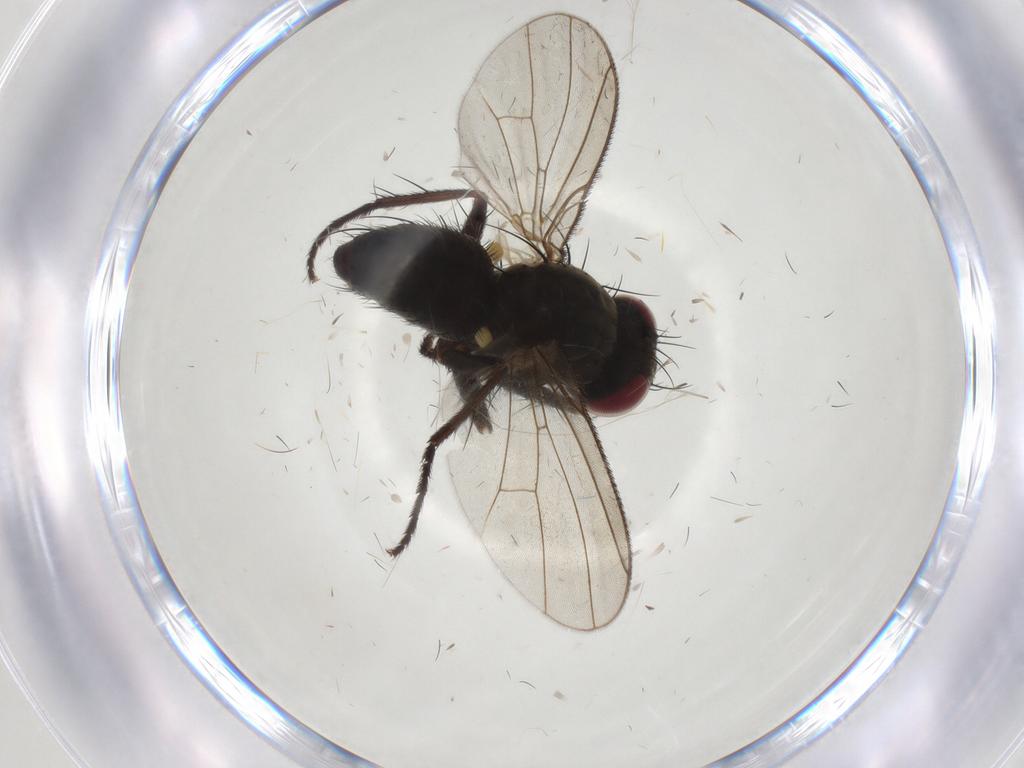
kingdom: Animalia
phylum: Arthropoda
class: Insecta
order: Diptera
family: Muscidae
